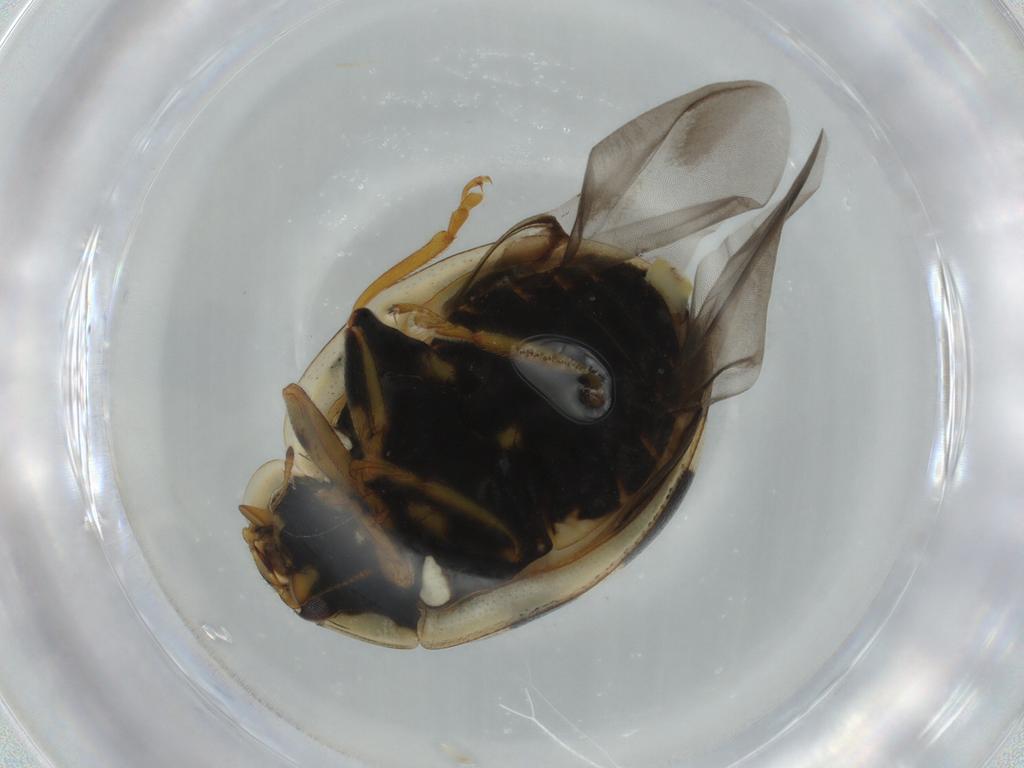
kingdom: Animalia
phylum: Arthropoda
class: Insecta
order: Coleoptera
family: Coccinellidae
